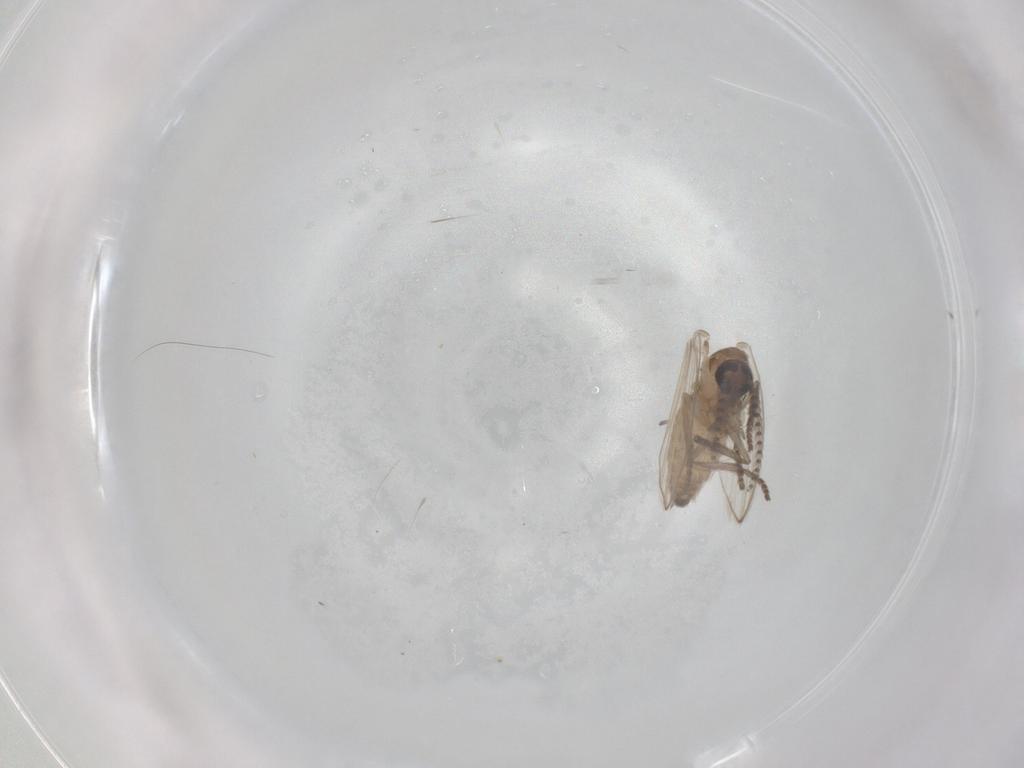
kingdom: Animalia
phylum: Arthropoda
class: Insecta
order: Diptera
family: Psychodidae
